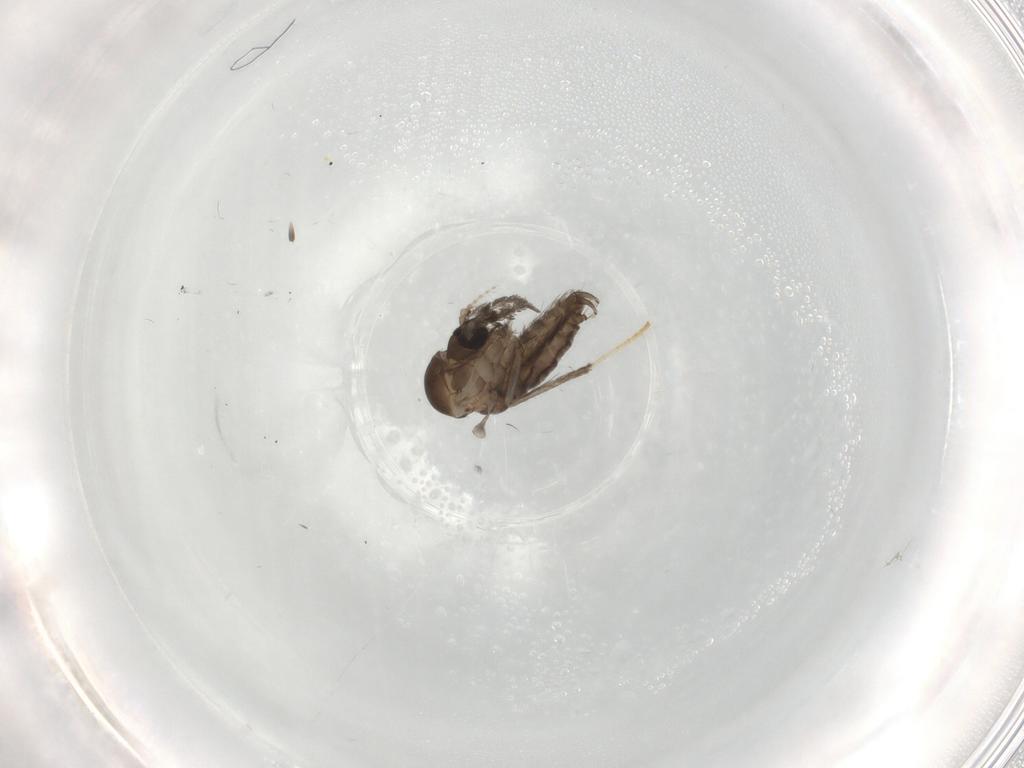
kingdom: Animalia
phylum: Arthropoda
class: Insecta
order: Diptera
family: Psychodidae
